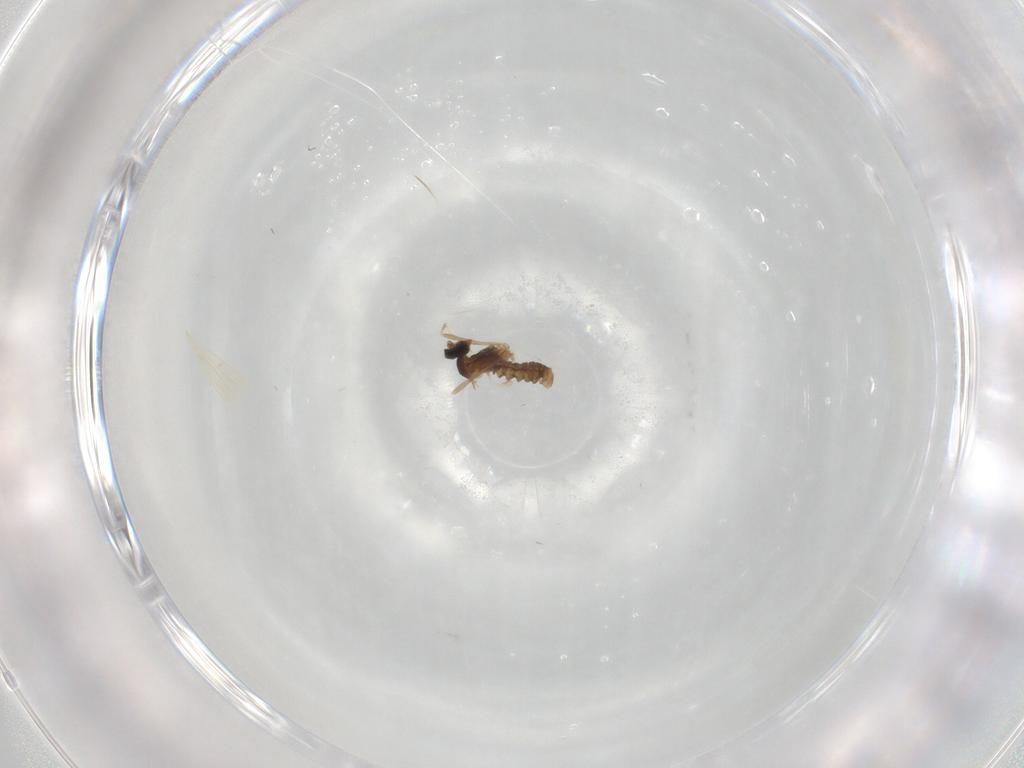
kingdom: Animalia
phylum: Arthropoda
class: Insecta
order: Diptera
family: Cecidomyiidae
